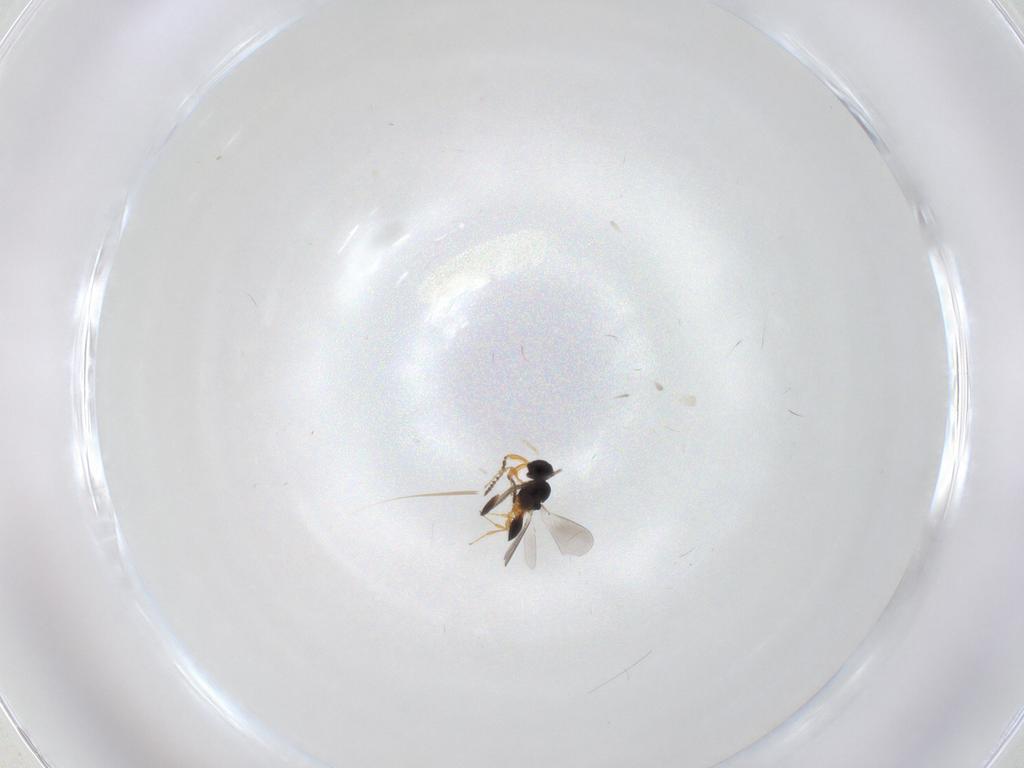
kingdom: Animalia
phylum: Arthropoda
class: Insecta
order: Hymenoptera
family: Platygastridae
